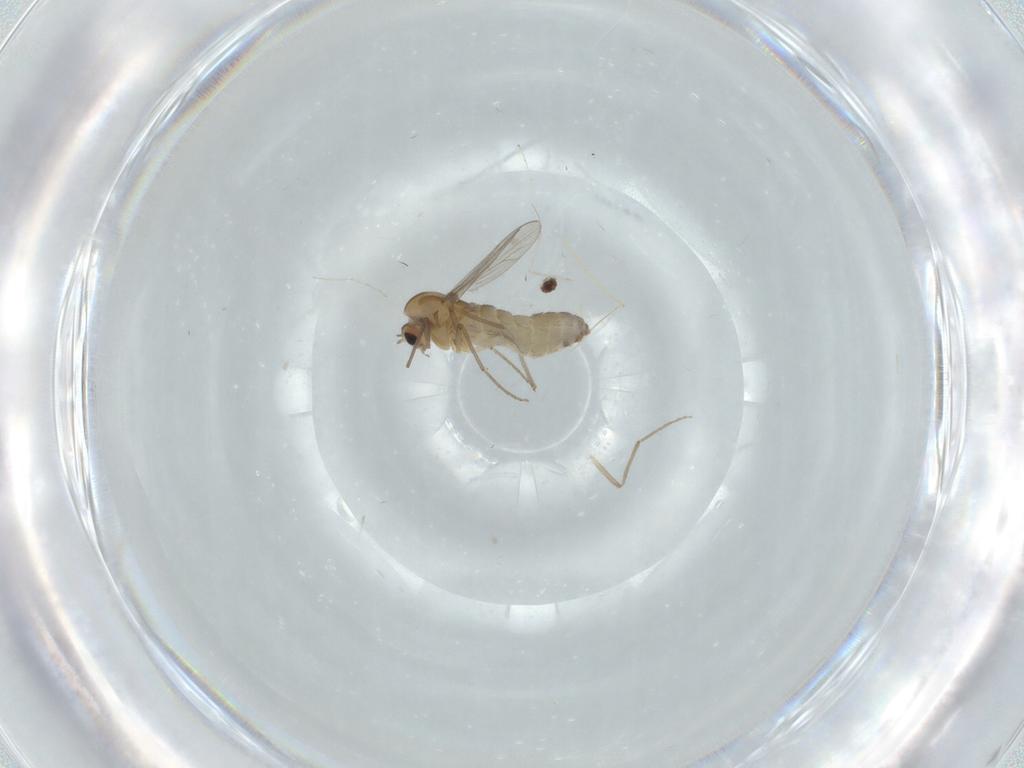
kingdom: Animalia
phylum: Arthropoda
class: Insecta
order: Diptera
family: Chironomidae
